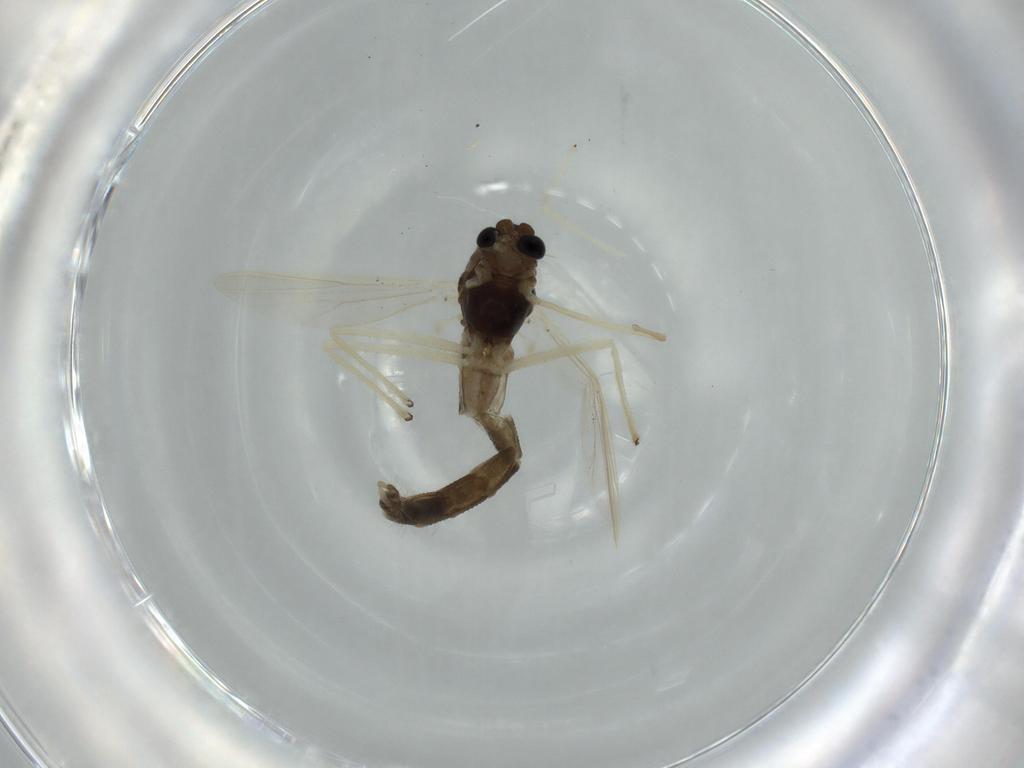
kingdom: Animalia
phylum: Arthropoda
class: Insecta
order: Diptera
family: Chironomidae
